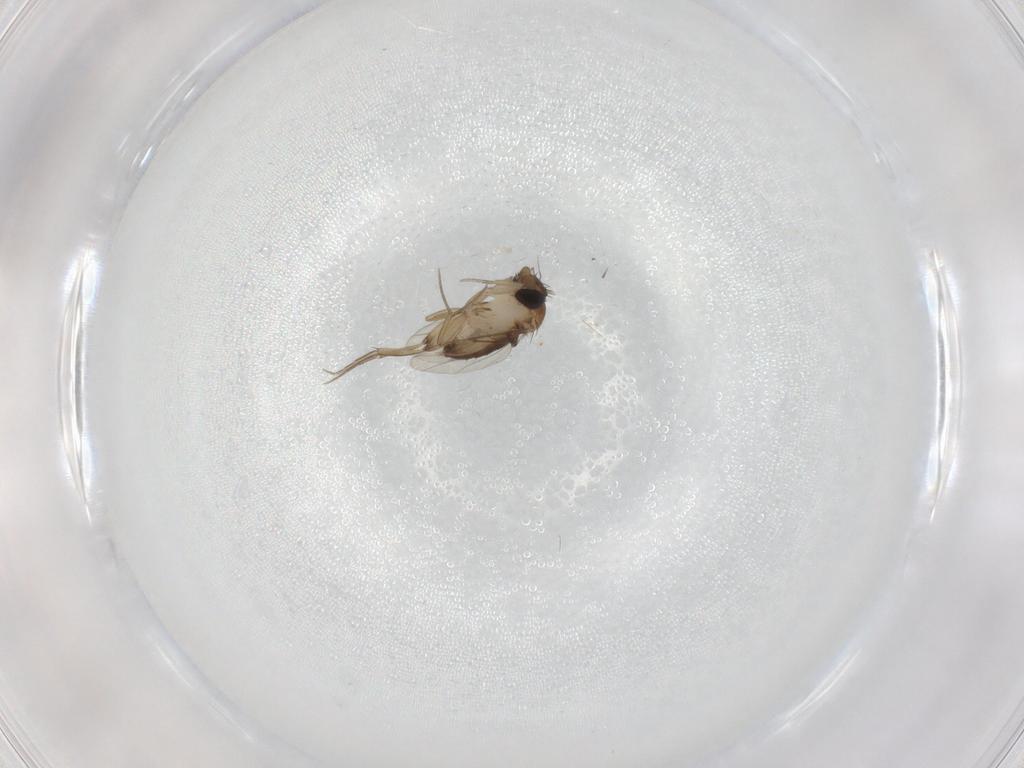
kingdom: Animalia
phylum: Arthropoda
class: Insecta
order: Diptera
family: Phoridae
